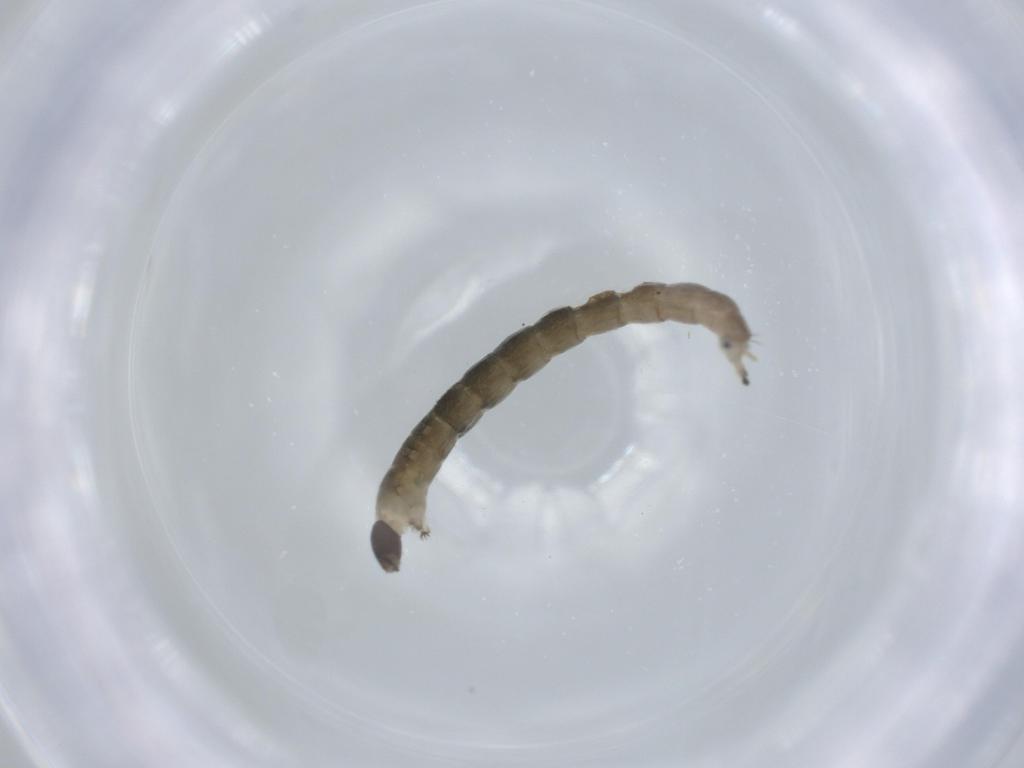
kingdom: Animalia
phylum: Arthropoda
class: Insecta
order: Diptera
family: Chironomidae
